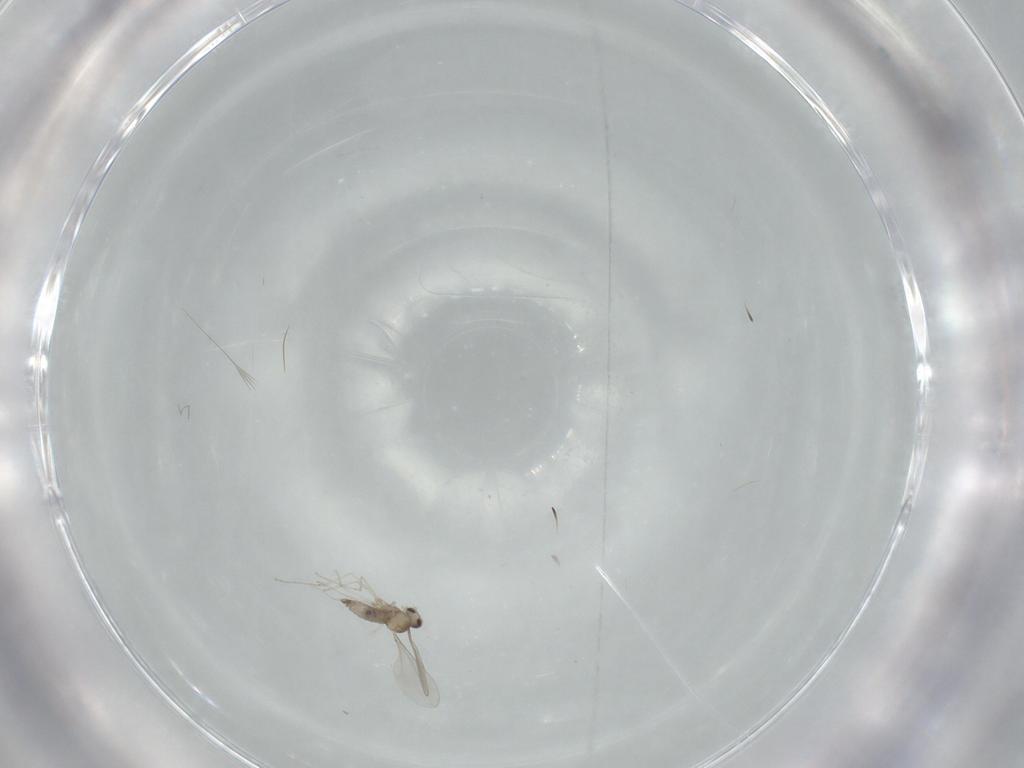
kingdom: Animalia
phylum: Arthropoda
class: Insecta
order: Diptera
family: Cecidomyiidae
